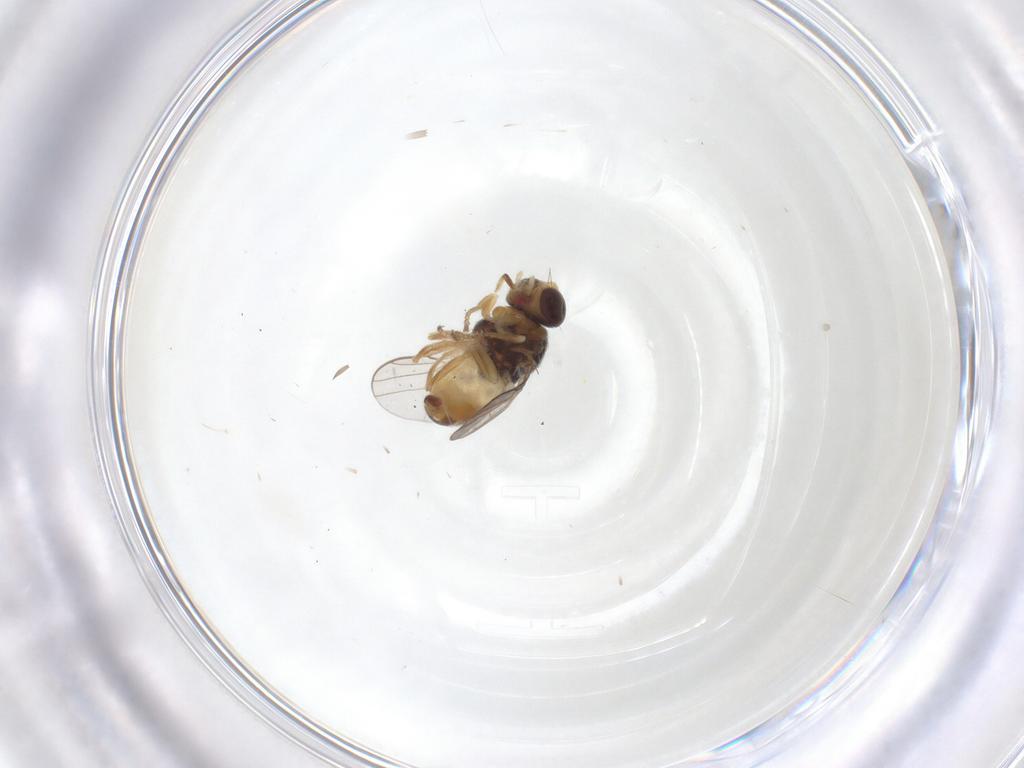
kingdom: Animalia
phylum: Arthropoda
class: Insecta
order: Diptera
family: Chloropidae
